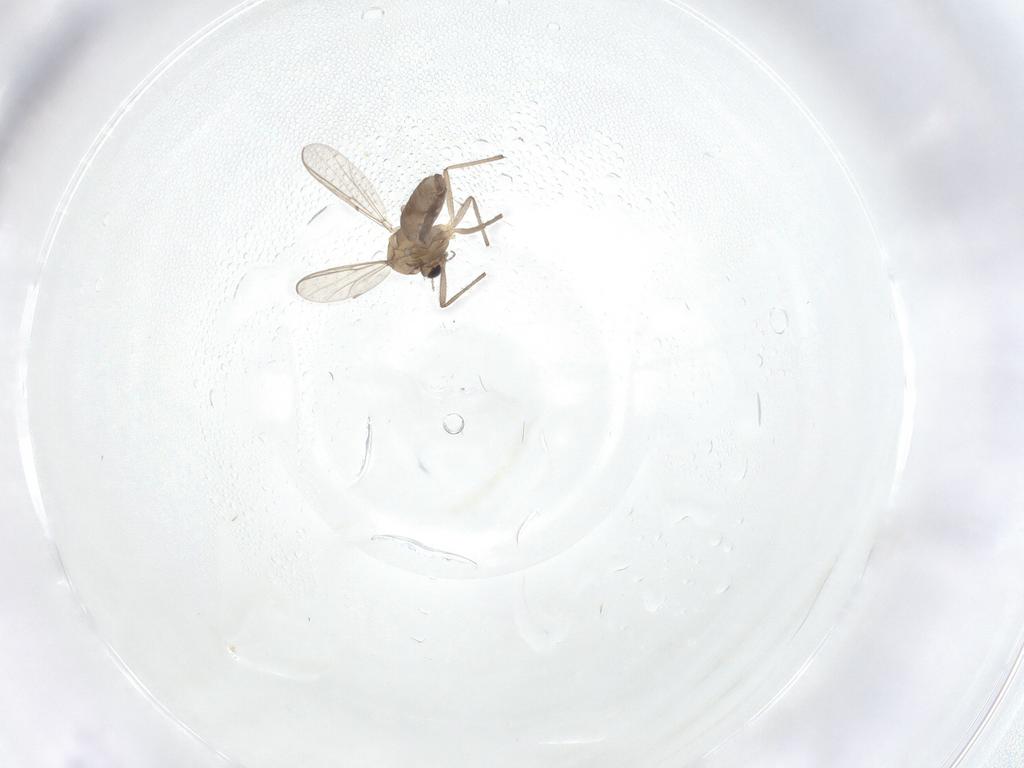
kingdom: Animalia
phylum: Arthropoda
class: Insecta
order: Diptera
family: Chironomidae
